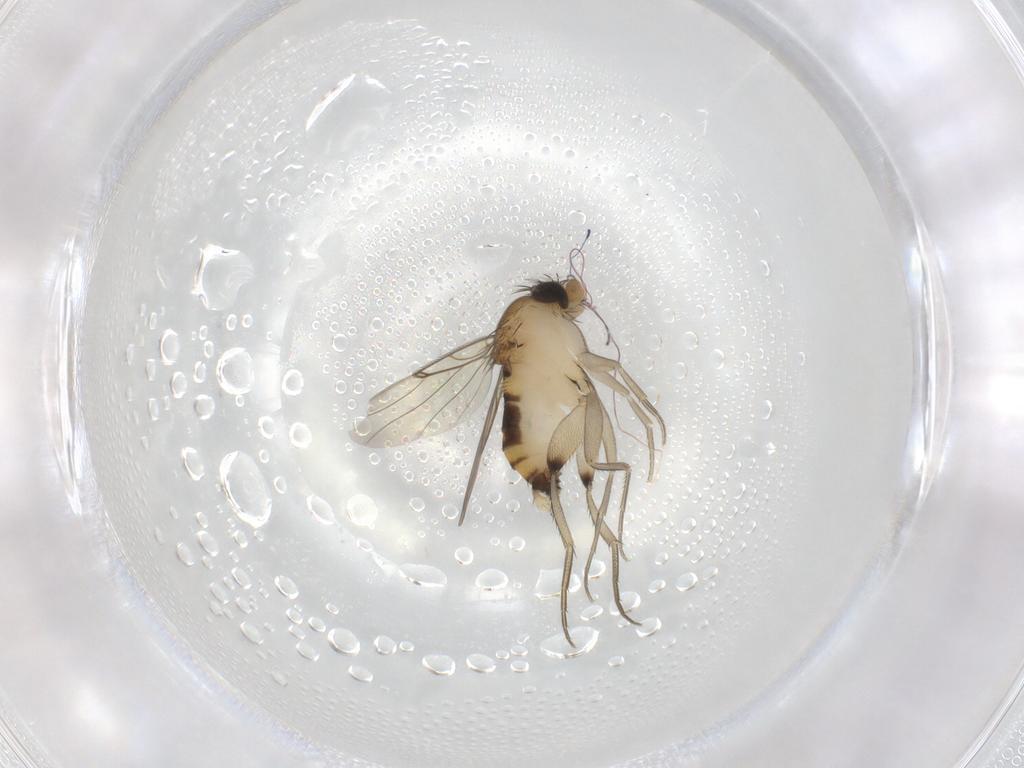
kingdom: Animalia
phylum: Arthropoda
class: Insecta
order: Diptera
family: Phoridae
